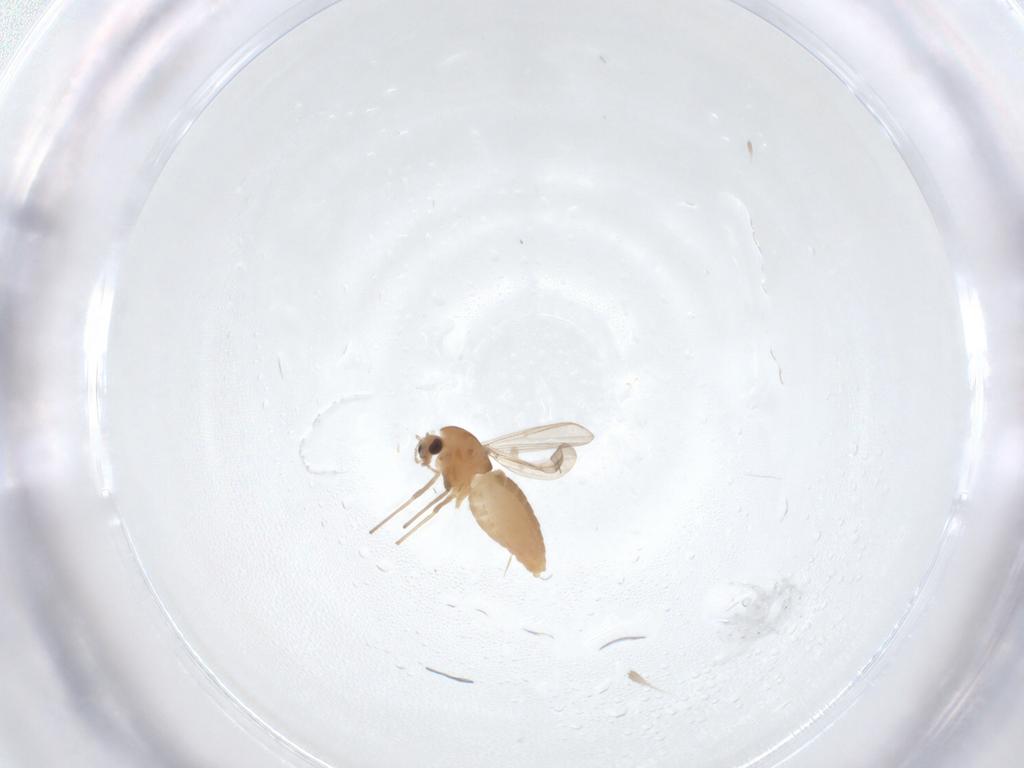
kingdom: Animalia
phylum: Arthropoda
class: Insecta
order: Diptera
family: Chironomidae
